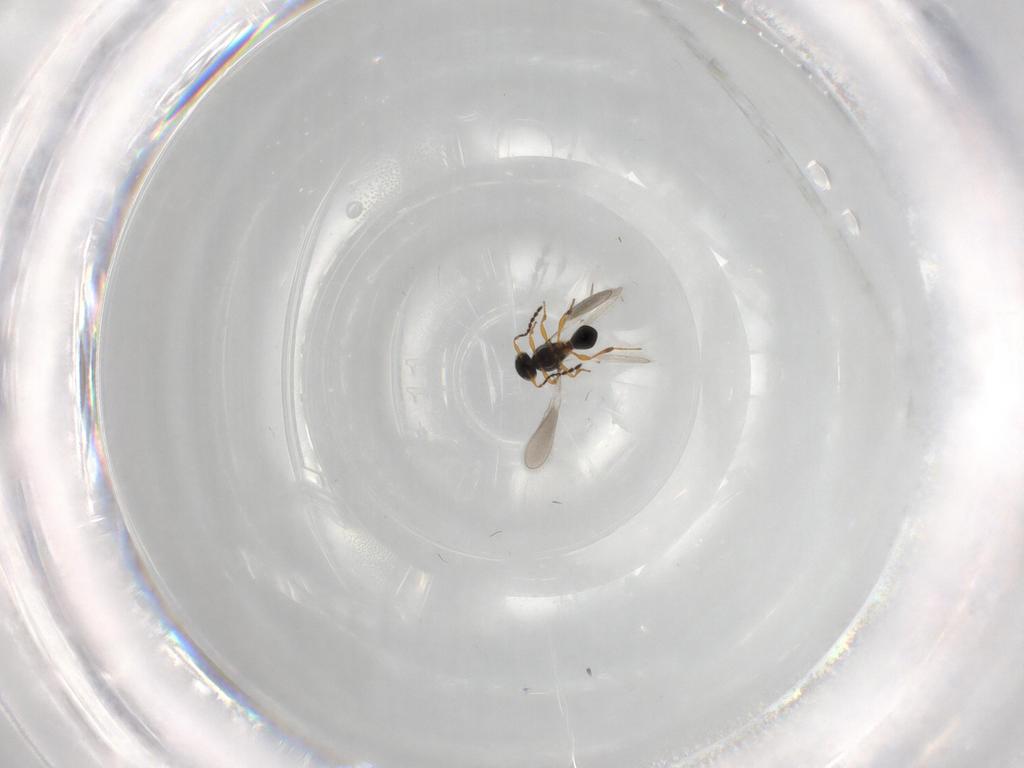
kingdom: Animalia
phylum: Arthropoda
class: Insecta
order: Hymenoptera
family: Platygastridae
